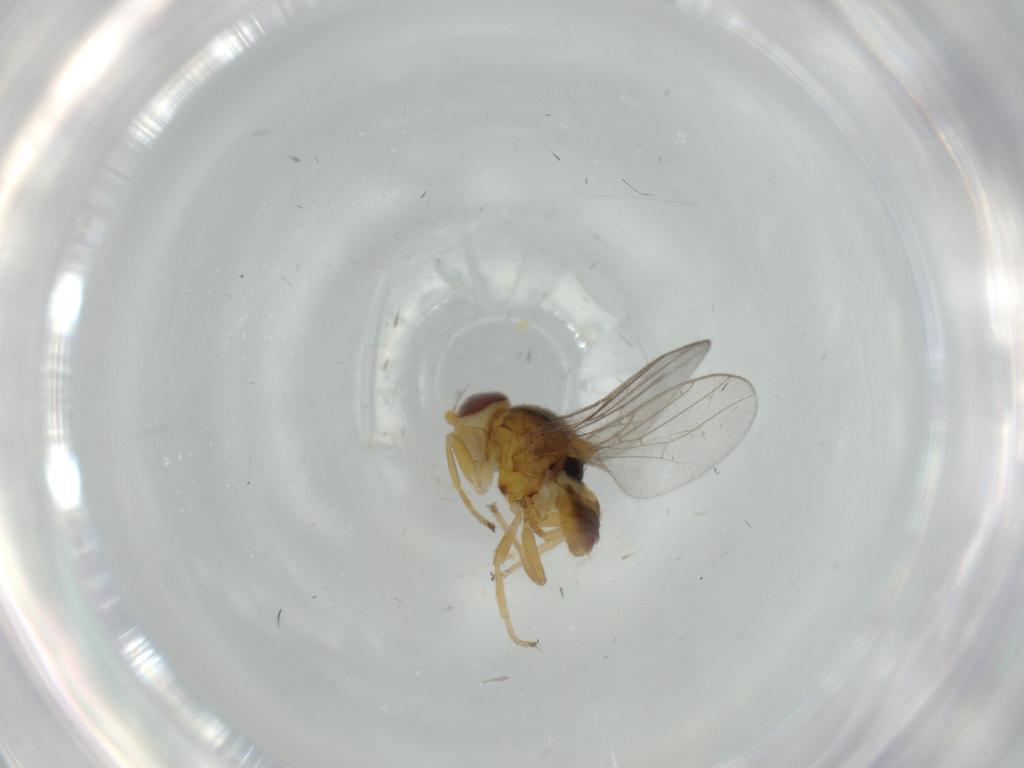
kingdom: Animalia
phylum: Arthropoda
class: Insecta
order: Diptera
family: Chloropidae
